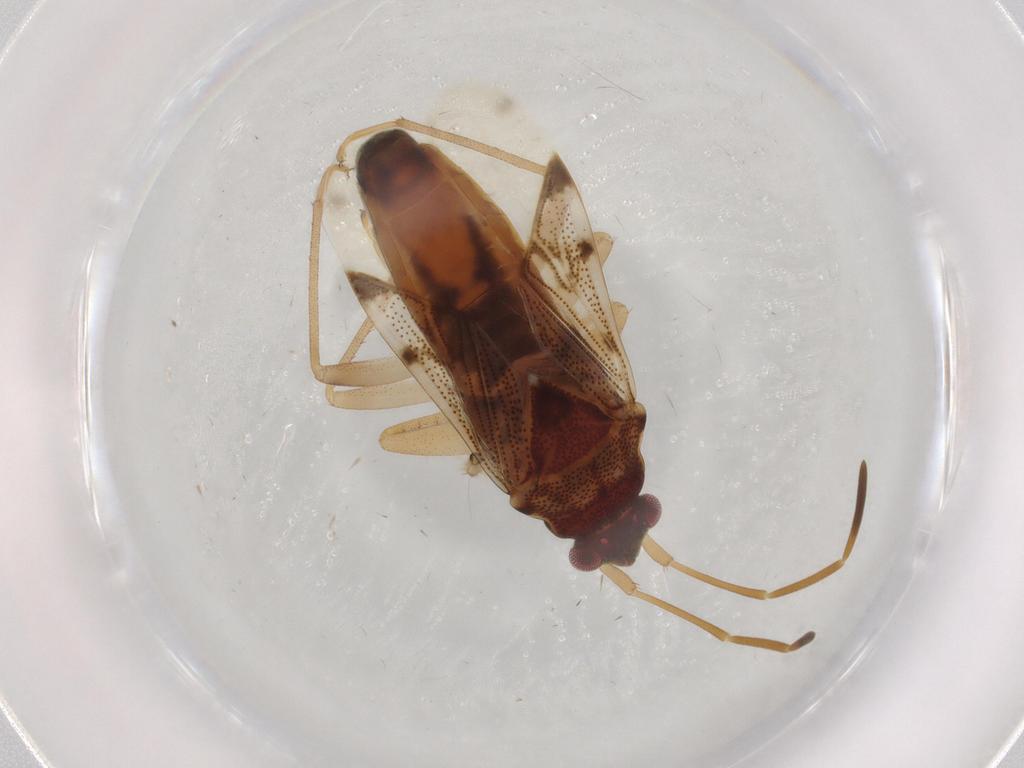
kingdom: Animalia
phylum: Arthropoda
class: Insecta
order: Hemiptera
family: Rhyparochromidae
